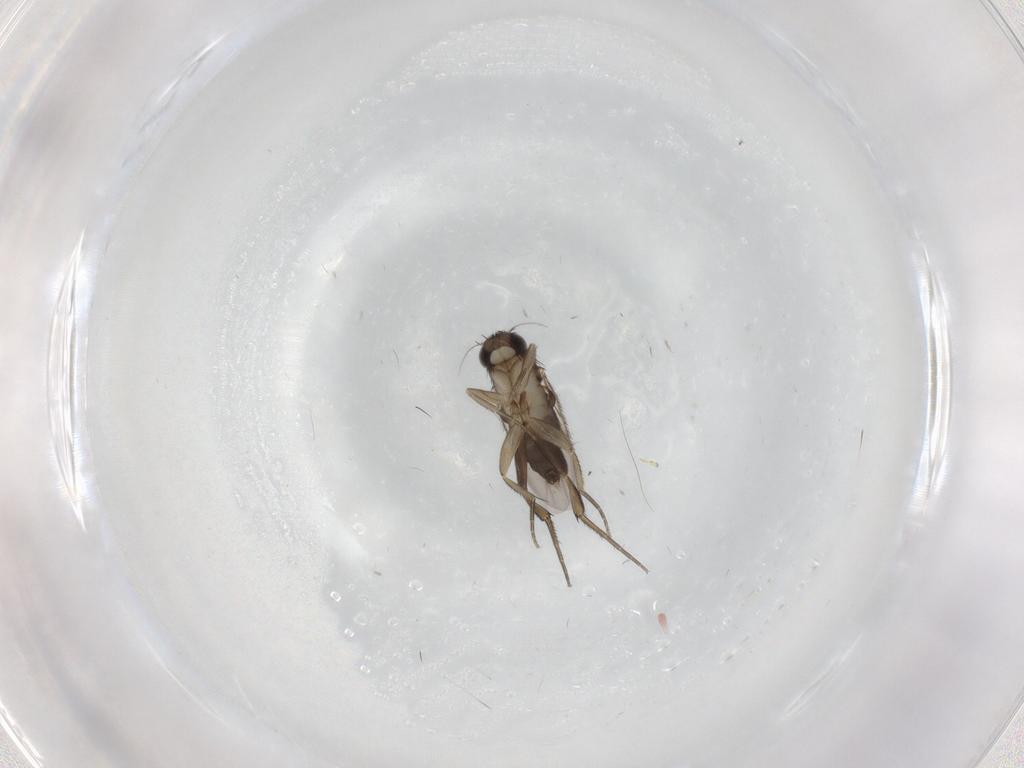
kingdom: Animalia
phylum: Arthropoda
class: Insecta
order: Diptera
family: Phoridae
